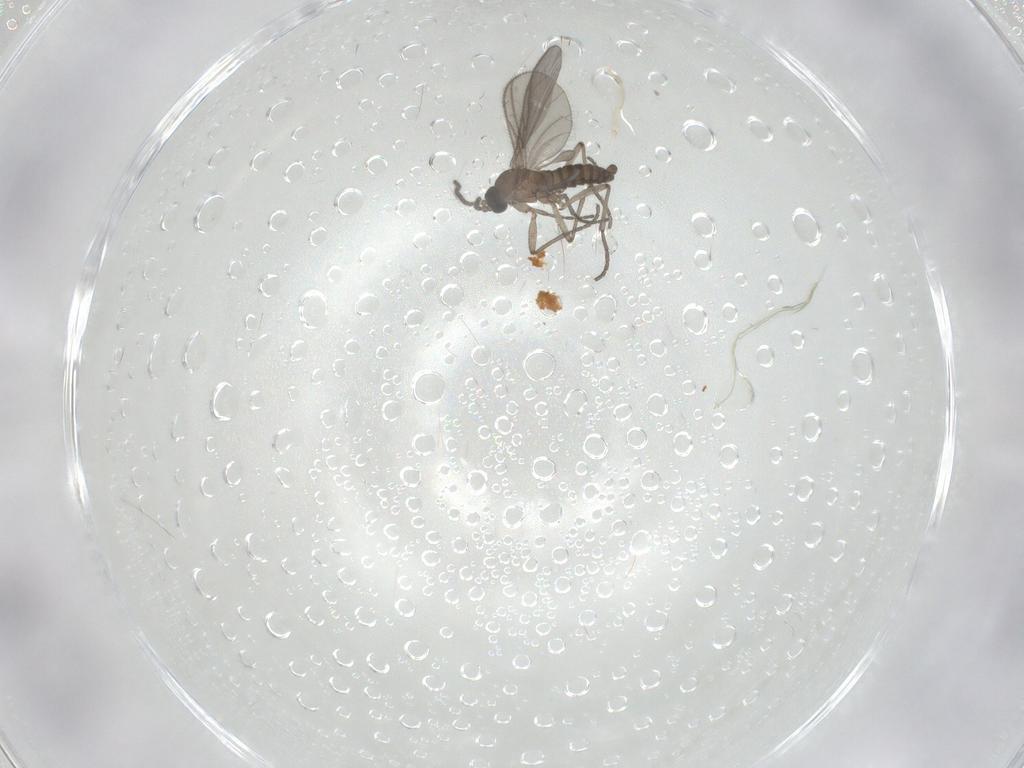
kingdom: Animalia
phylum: Arthropoda
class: Insecta
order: Diptera
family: Sciaridae
